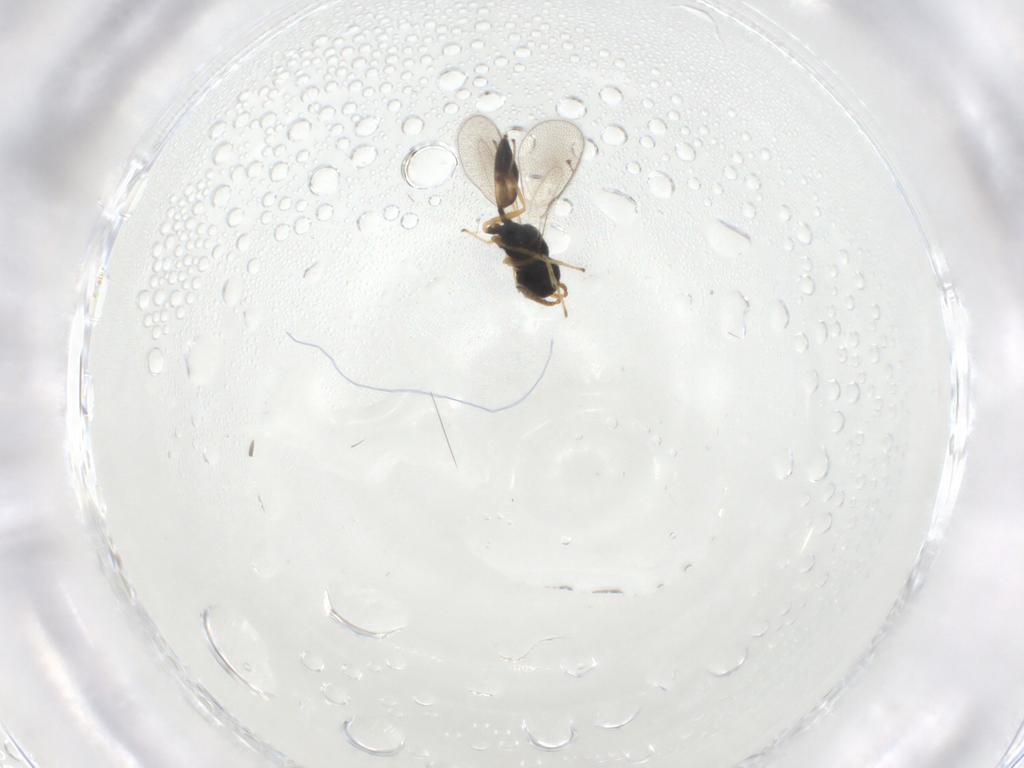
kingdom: Animalia
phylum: Arthropoda
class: Insecta
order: Hymenoptera
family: Pteromalidae
